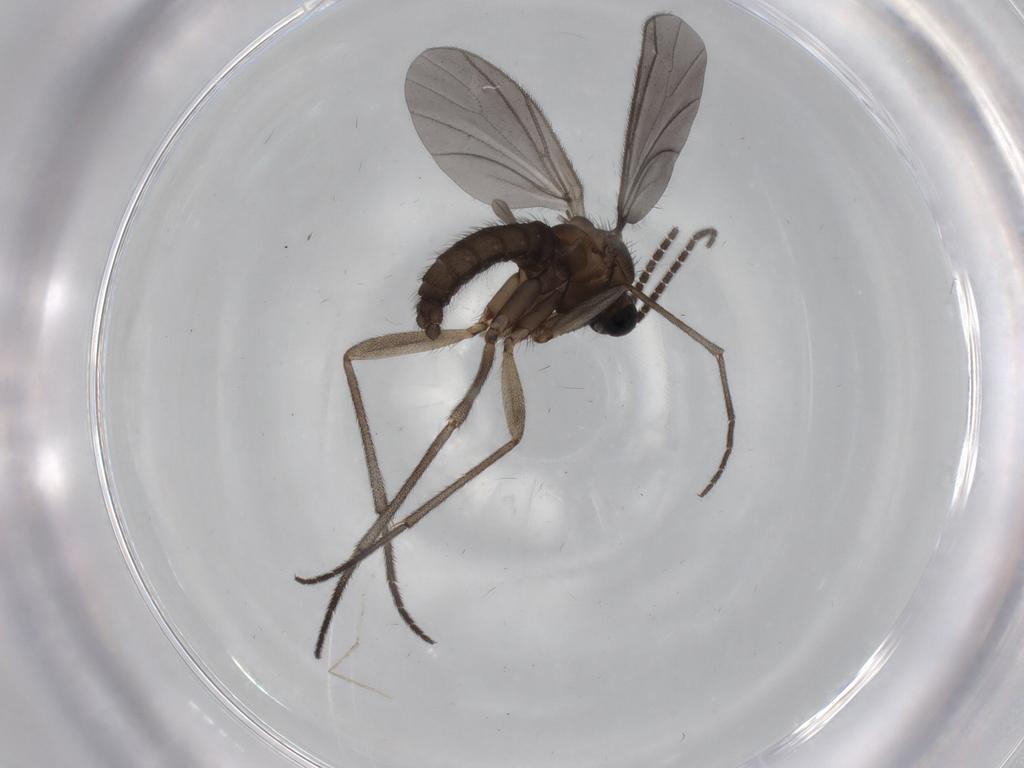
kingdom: Animalia
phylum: Arthropoda
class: Insecta
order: Diptera
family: Sciaridae
